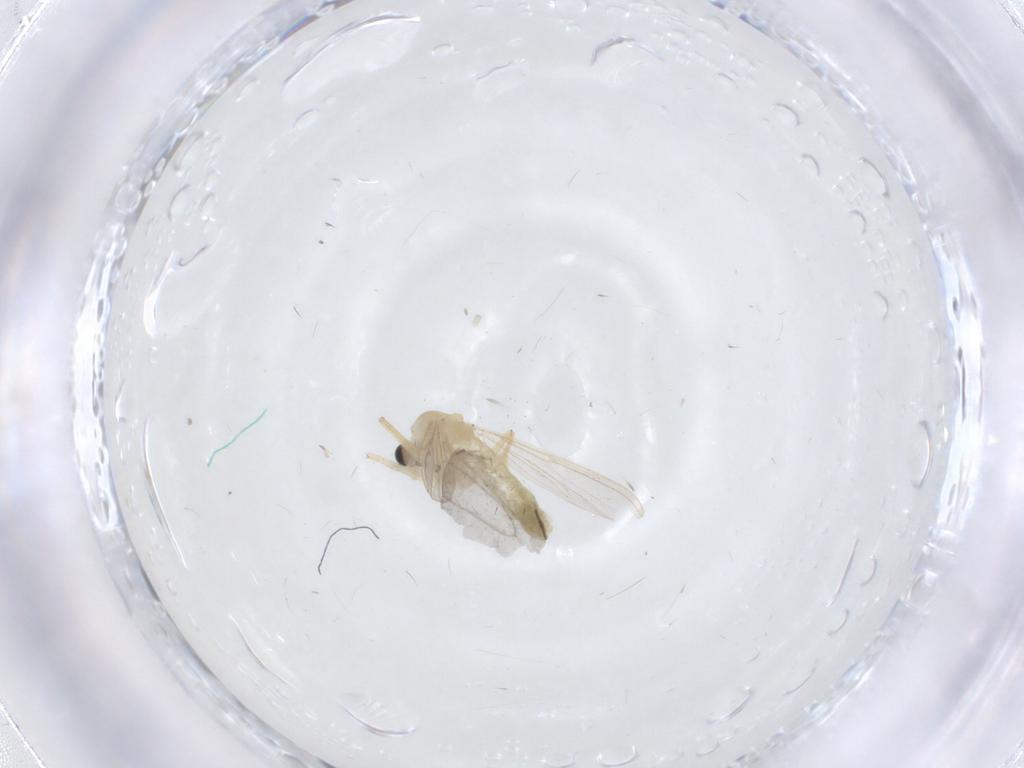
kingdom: Animalia
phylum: Arthropoda
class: Insecta
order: Diptera
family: Chironomidae
